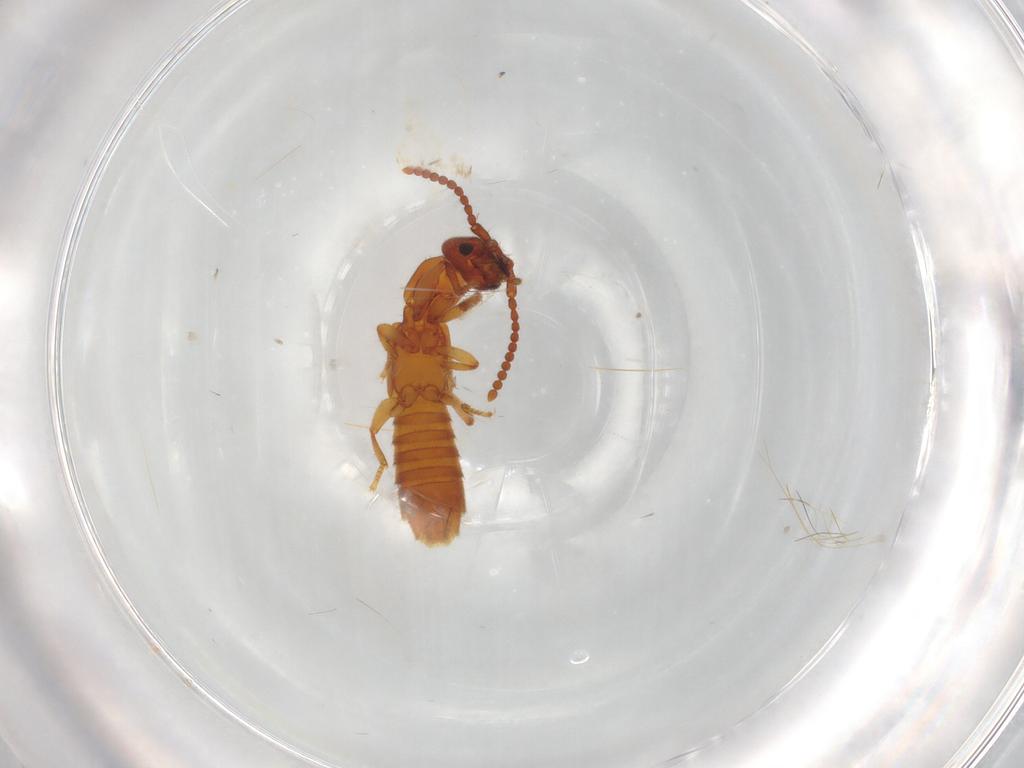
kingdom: Animalia
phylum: Arthropoda
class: Insecta
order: Coleoptera
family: Staphylinidae
